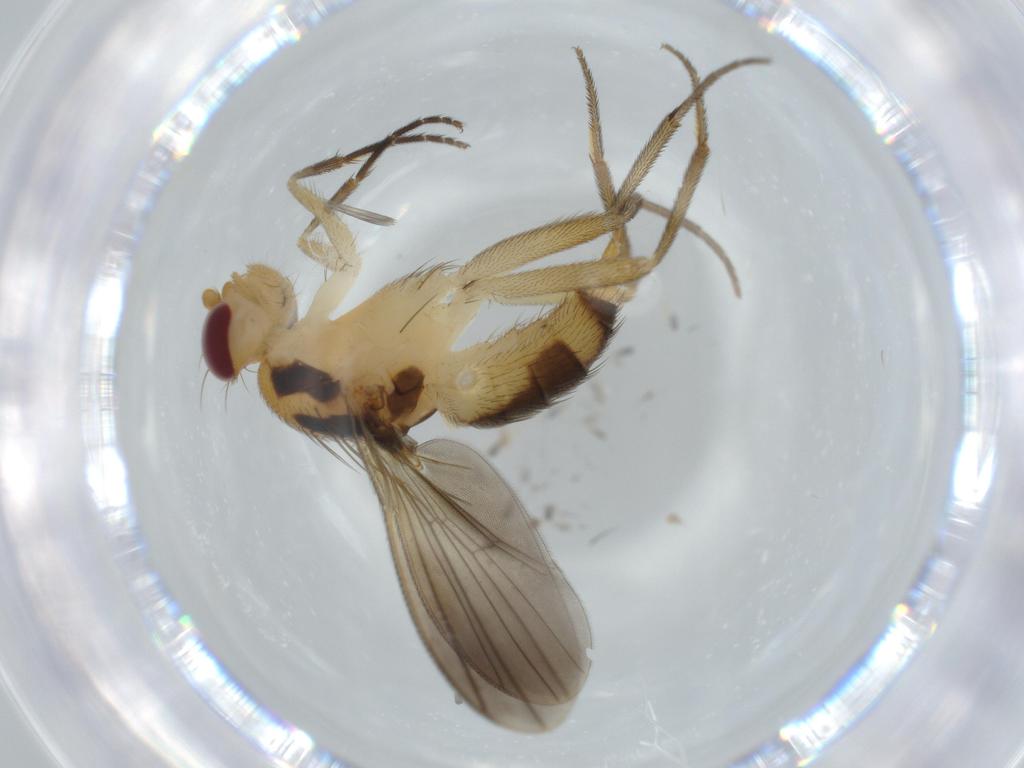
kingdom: Animalia
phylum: Arthropoda
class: Insecta
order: Diptera
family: Clusiidae
